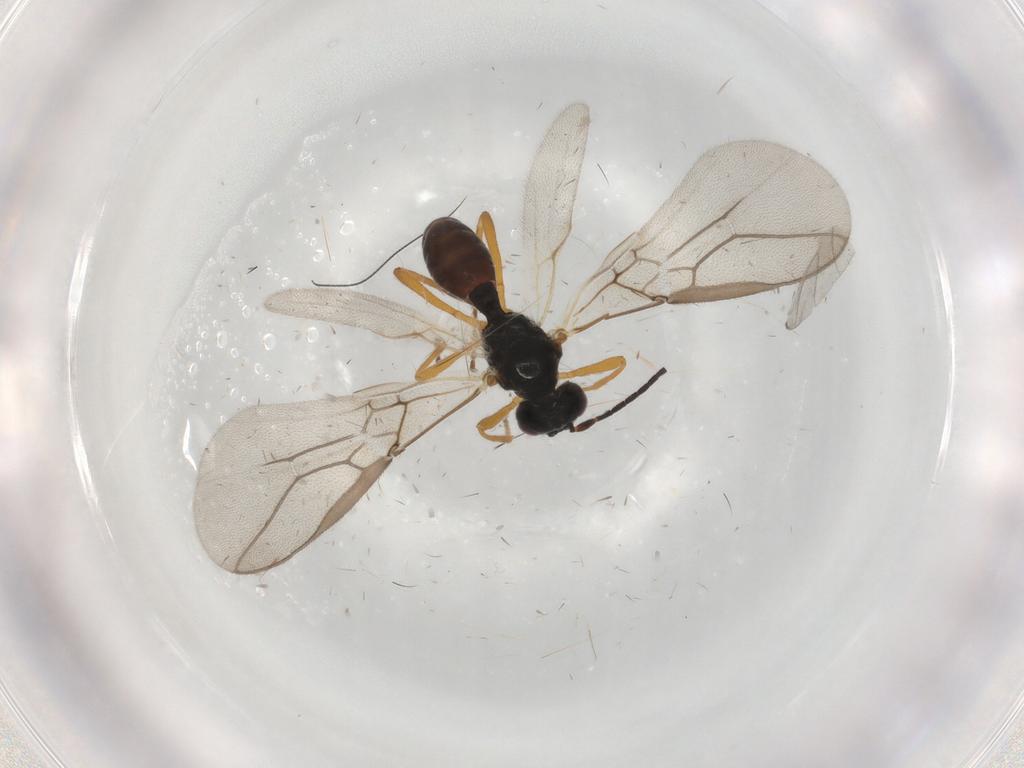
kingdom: Animalia
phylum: Arthropoda
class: Insecta
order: Hymenoptera
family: Braconidae
